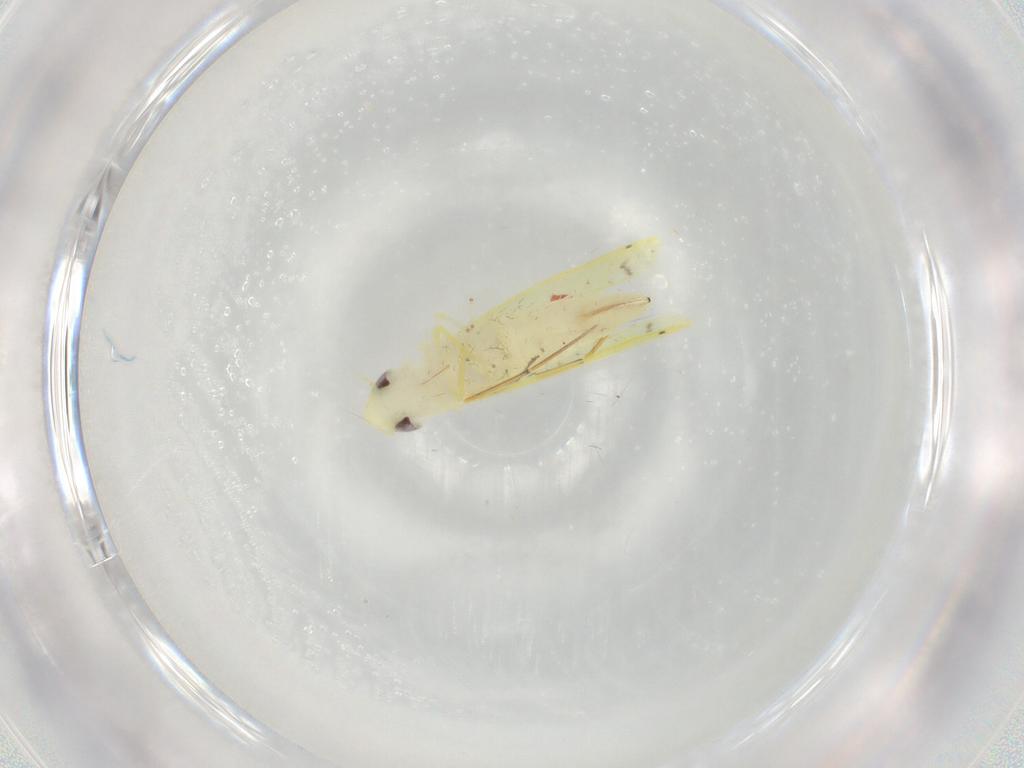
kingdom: Animalia
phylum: Arthropoda
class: Insecta
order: Hemiptera
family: Cicadellidae
